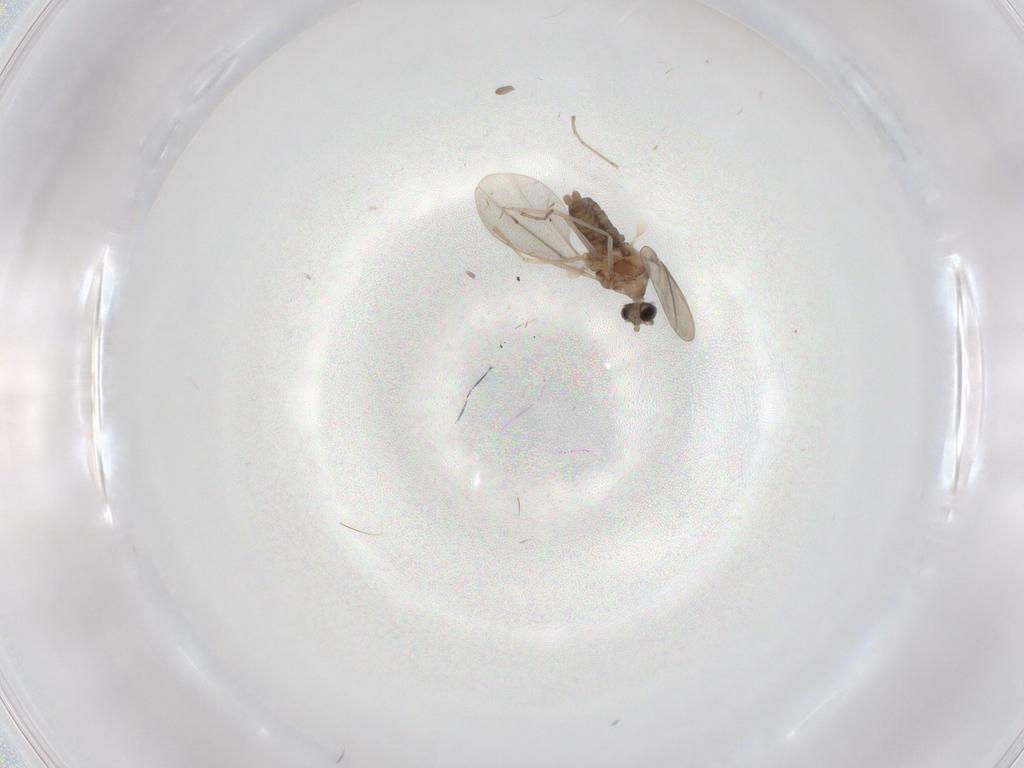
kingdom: Animalia
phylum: Arthropoda
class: Insecta
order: Diptera
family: Cecidomyiidae
